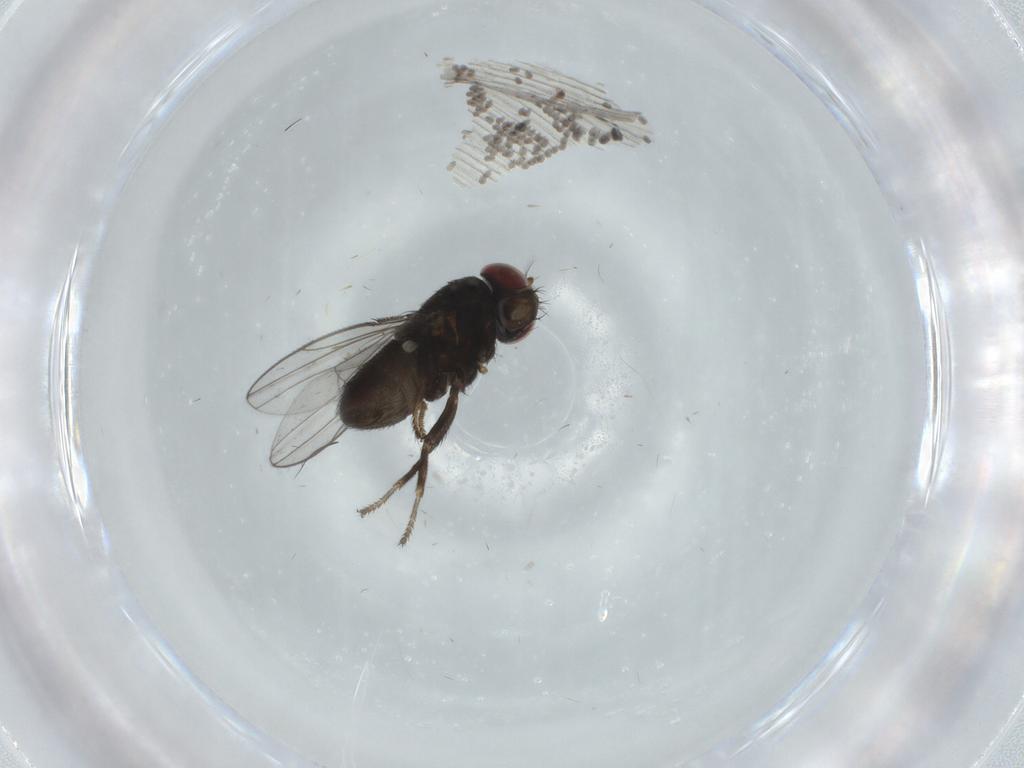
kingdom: Animalia
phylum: Arthropoda
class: Insecta
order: Diptera
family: Ephydridae
